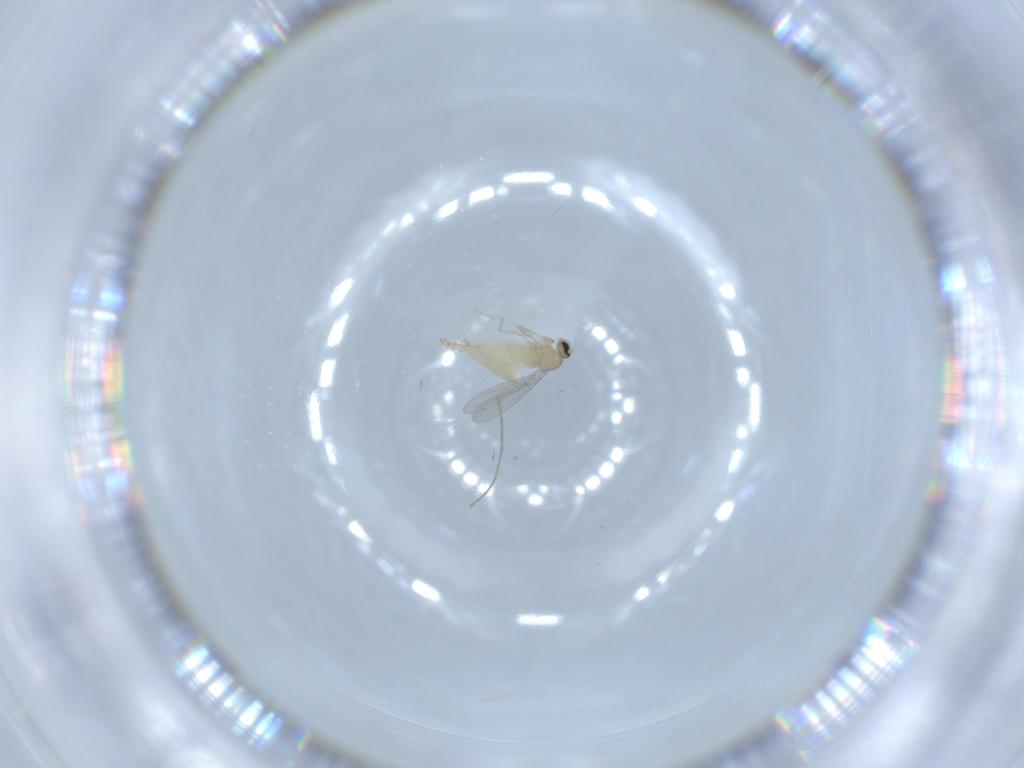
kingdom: Animalia
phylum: Arthropoda
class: Insecta
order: Diptera
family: Cecidomyiidae
